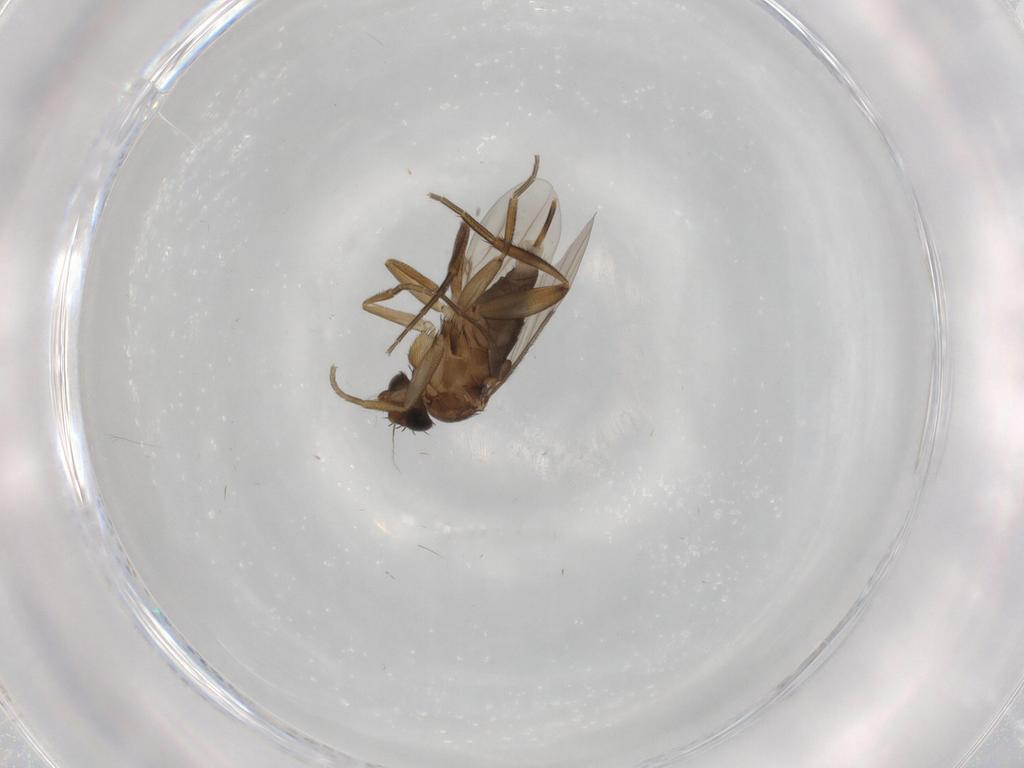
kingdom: Animalia
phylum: Arthropoda
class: Insecta
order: Diptera
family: Phoridae
